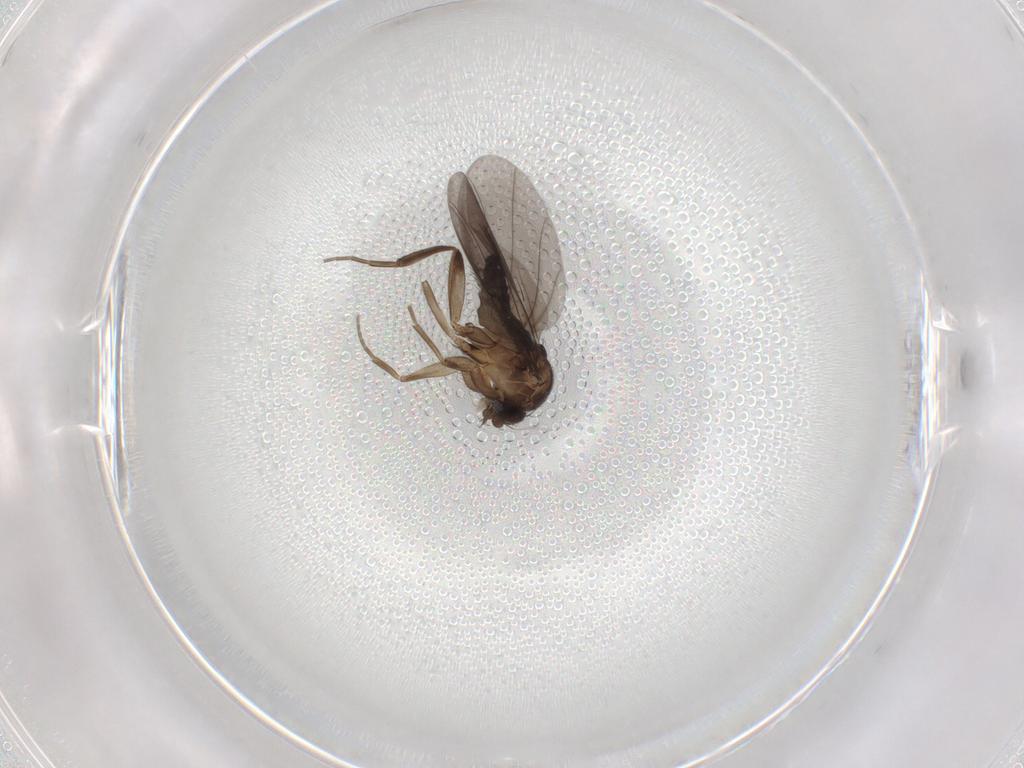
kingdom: Animalia
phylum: Arthropoda
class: Insecta
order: Diptera
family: Phoridae
